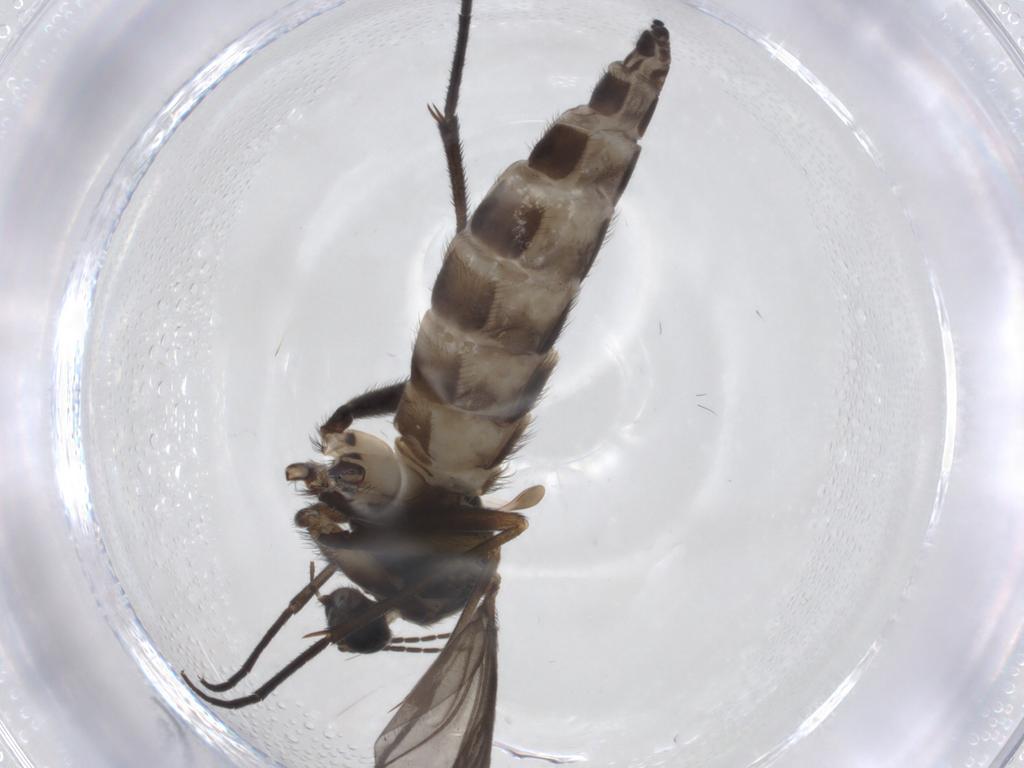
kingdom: Animalia
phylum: Arthropoda
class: Insecta
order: Diptera
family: Sciaridae
